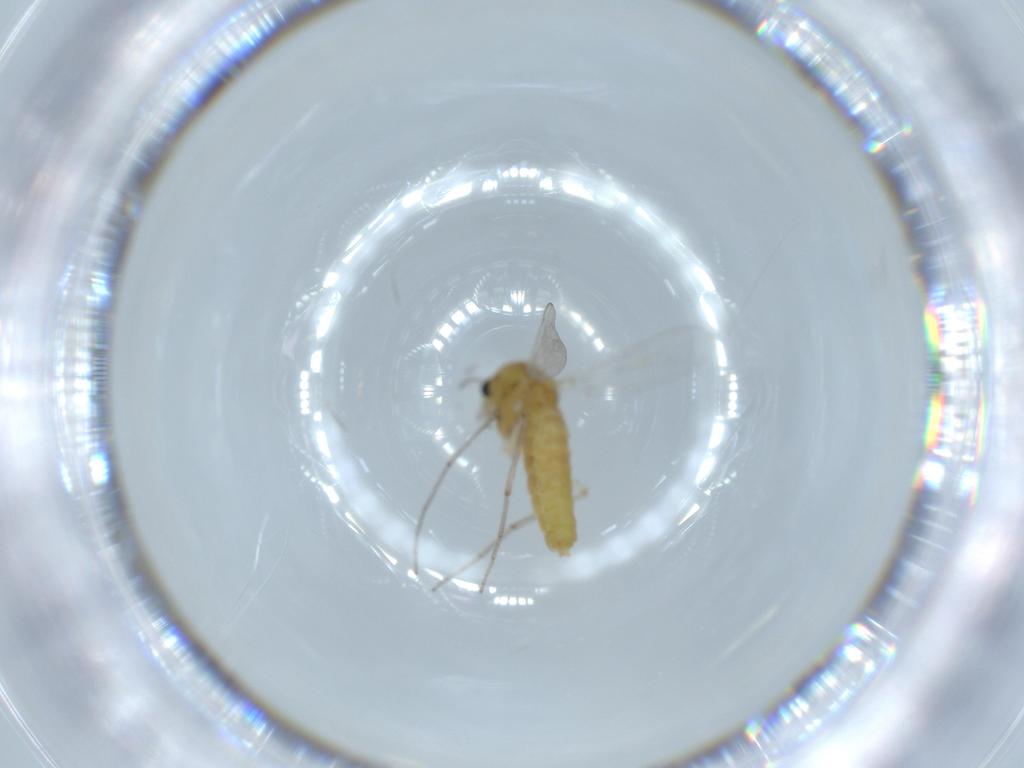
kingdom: Animalia
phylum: Arthropoda
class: Insecta
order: Diptera
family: Chironomidae
